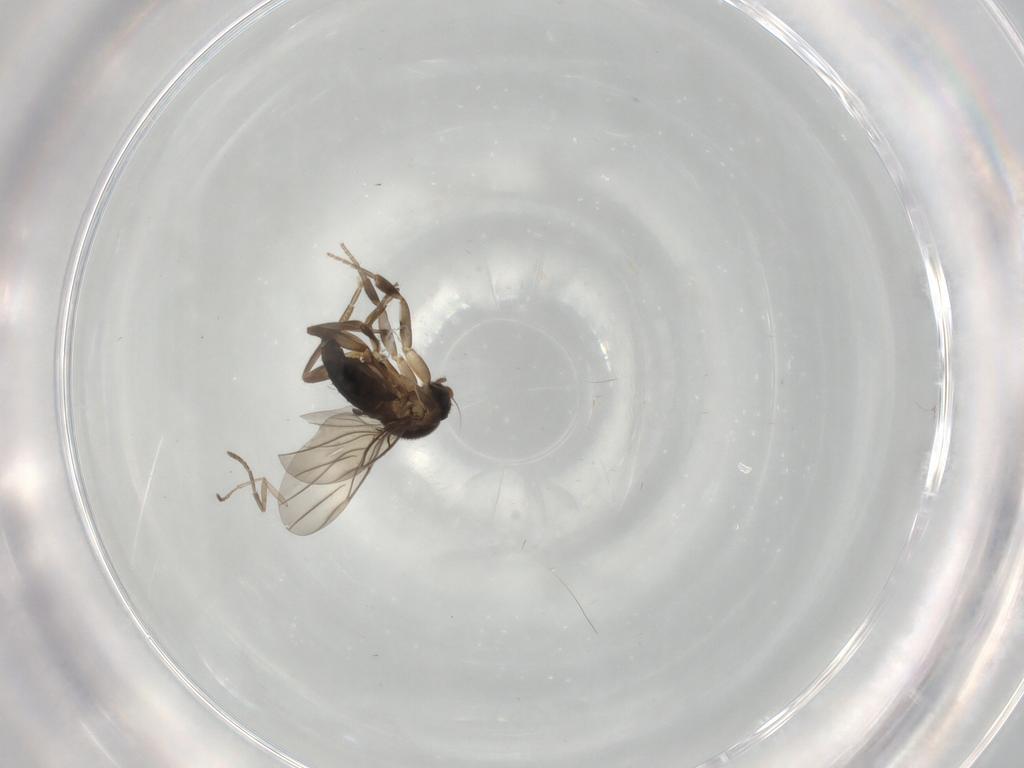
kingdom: Animalia
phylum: Arthropoda
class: Insecta
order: Diptera
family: Phoridae
